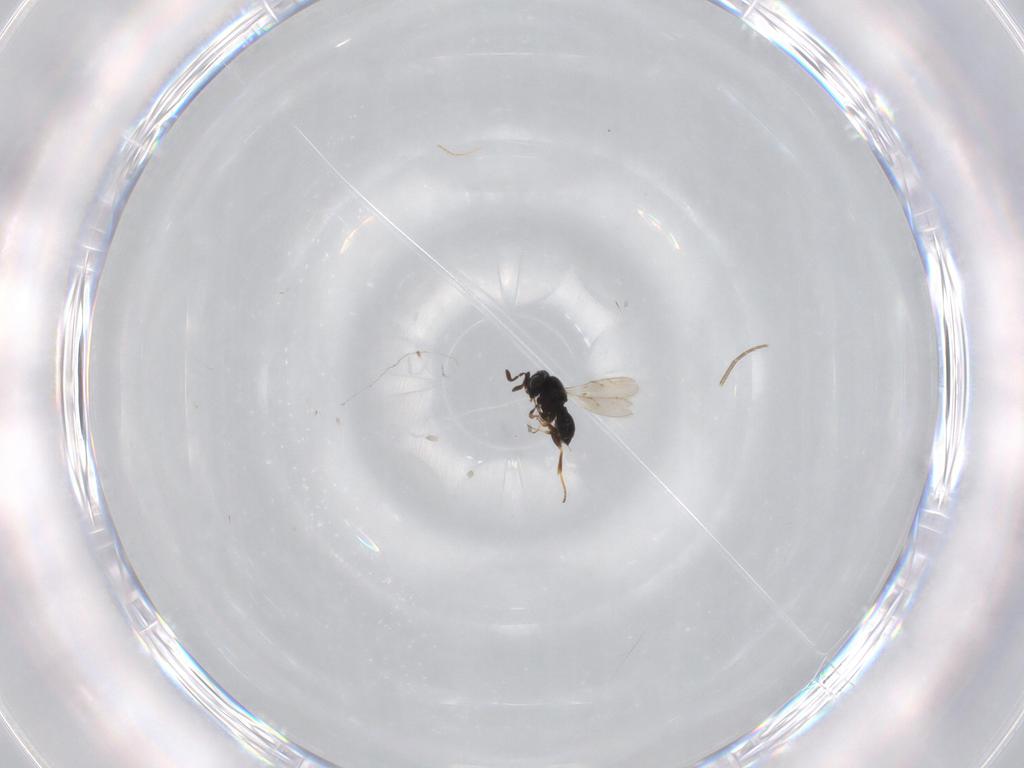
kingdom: Animalia
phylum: Arthropoda
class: Insecta
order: Hymenoptera
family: Scelionidae
